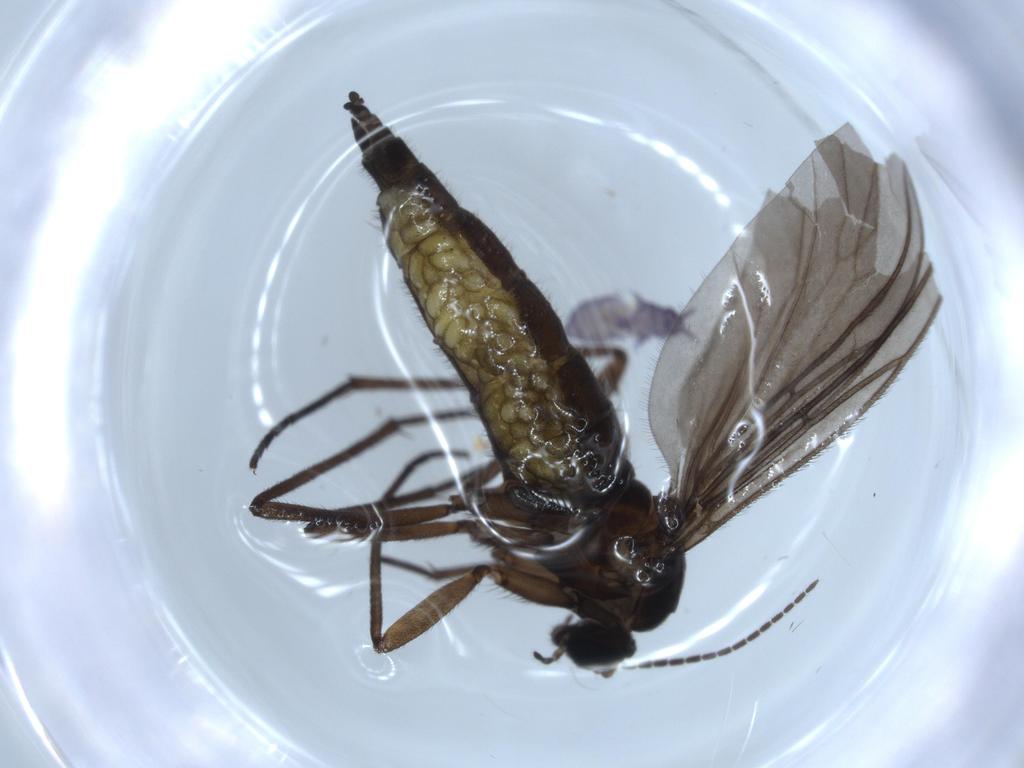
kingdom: Animalia
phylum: Arthropoda
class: Insecta
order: Diptera
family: Sciaridae
